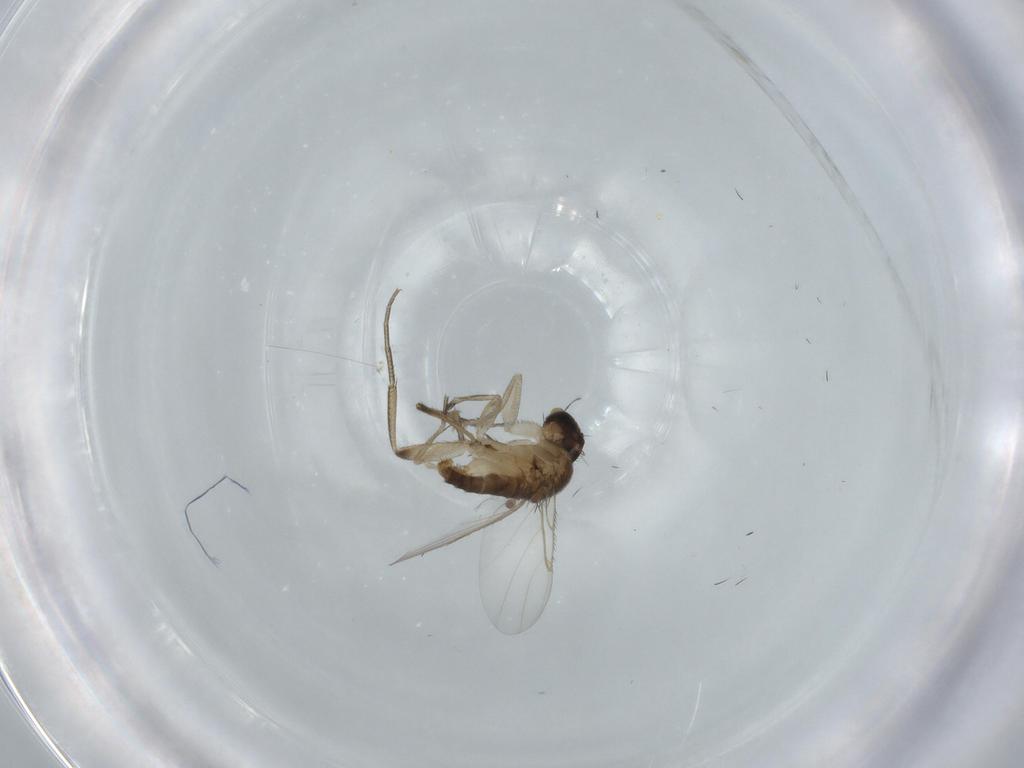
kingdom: Animalia
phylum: Arthropoda
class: Insecta
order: Diptera
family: Phoridae
